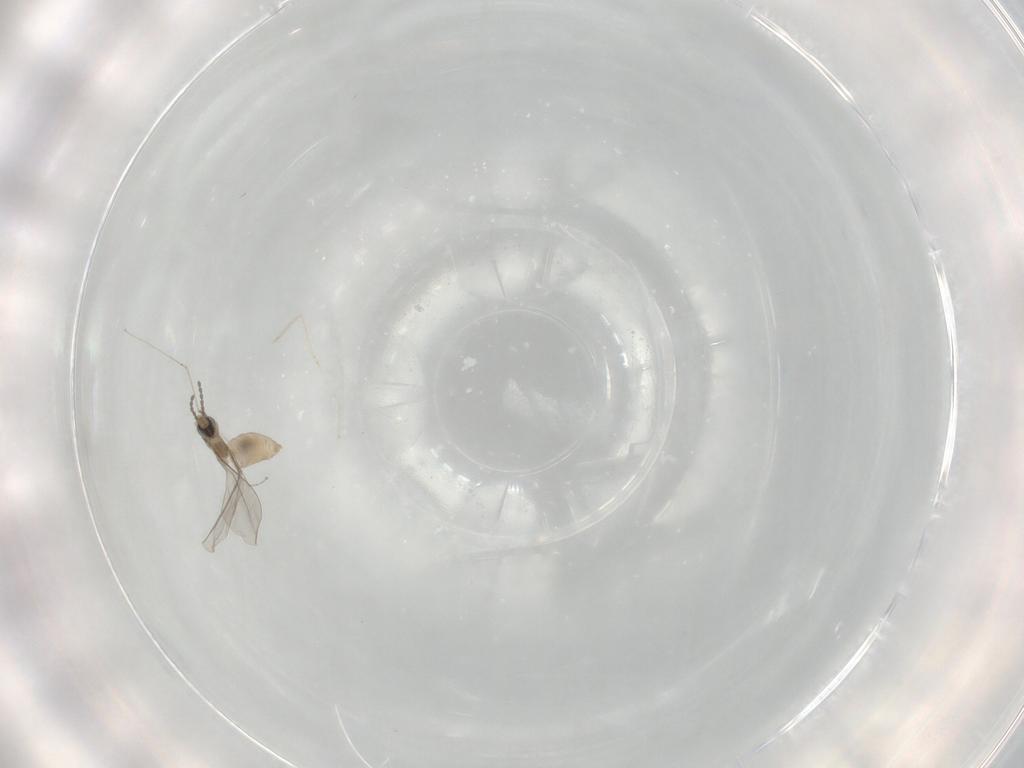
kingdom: Animalia
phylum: Arthropoda
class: Insecta
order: Diptera
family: Cecidomyiidae
